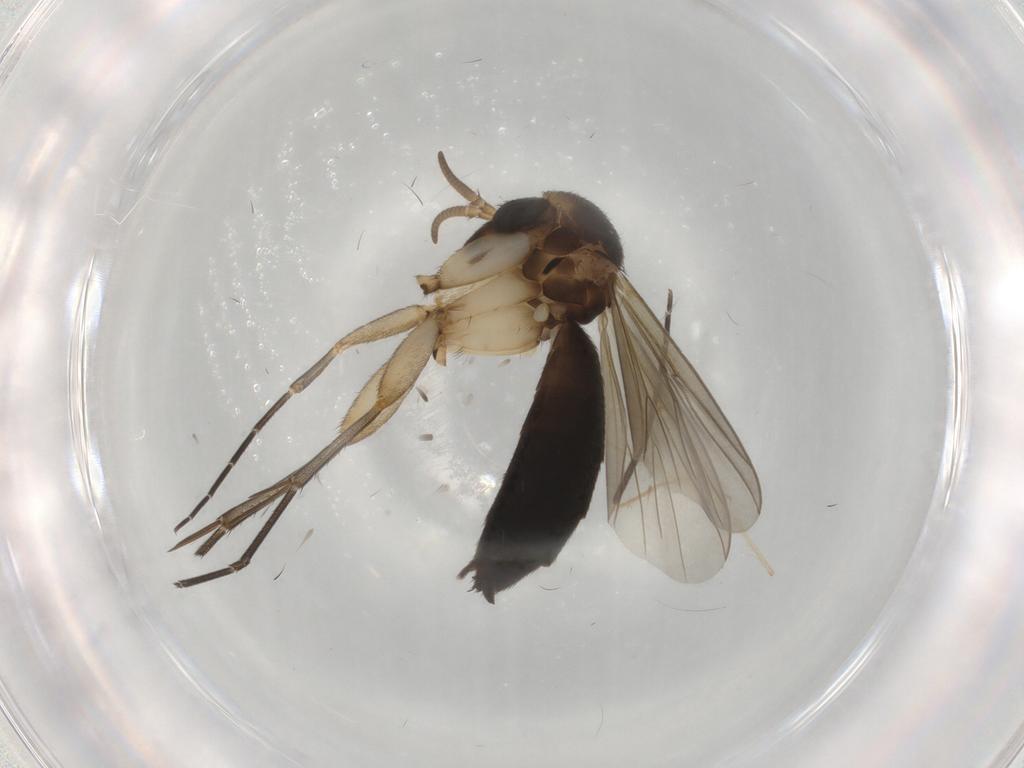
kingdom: Animalia
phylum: Arthropoda
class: Insecta
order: Diptera
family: Mycetophilidae
